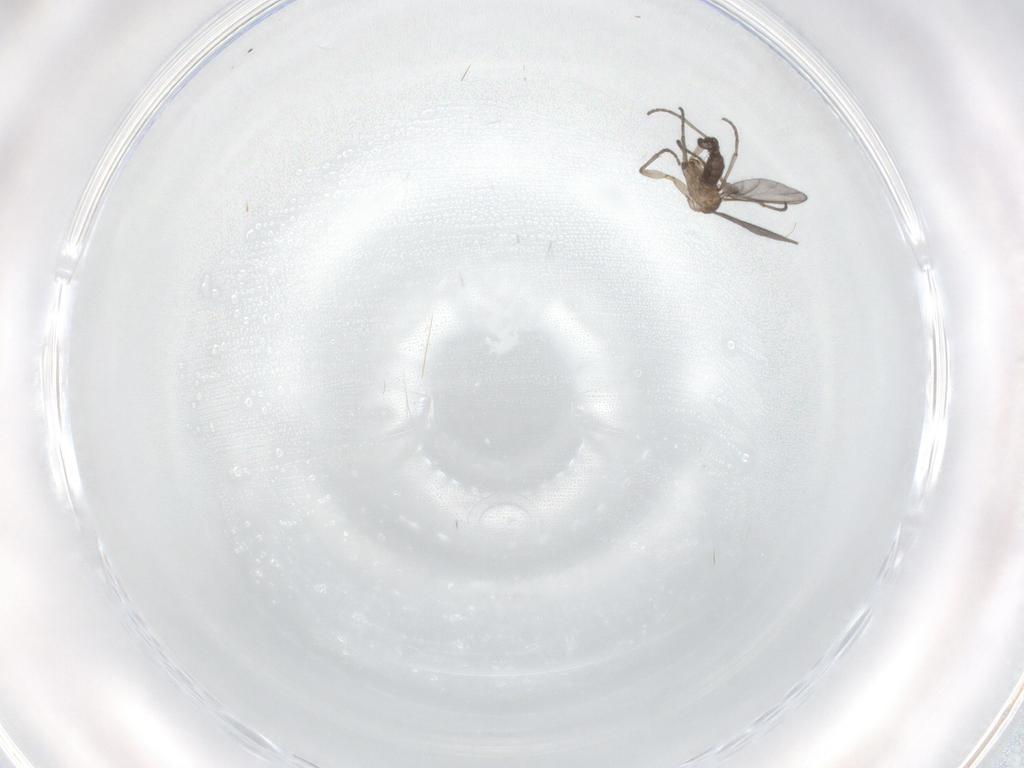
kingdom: Animalia
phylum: Arthropoda
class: Insecta
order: Diptera
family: Sciaridae
